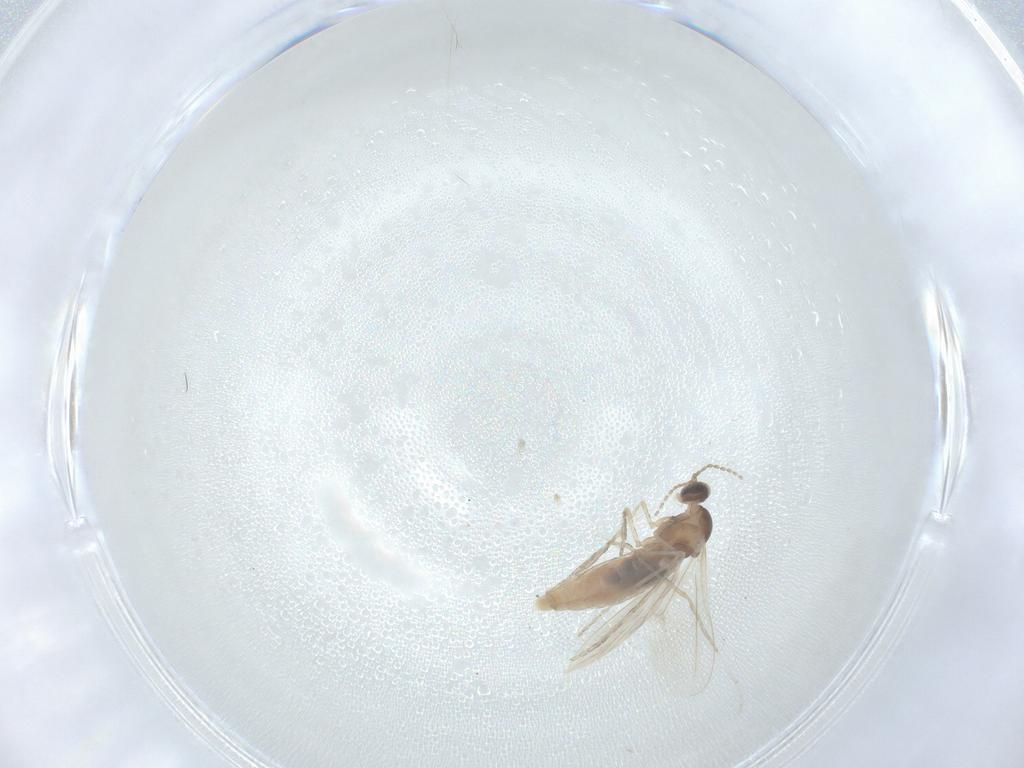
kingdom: Animalia
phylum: Arthropoda
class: Insecta
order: Diptera
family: Cecidomyiidae
